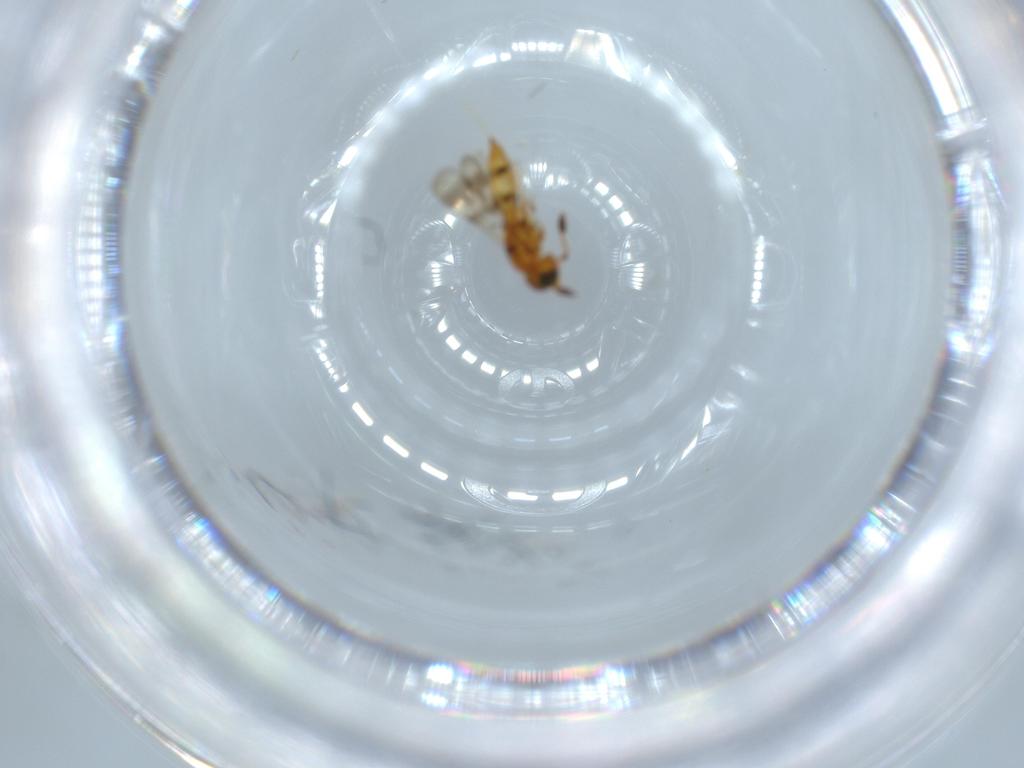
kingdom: Animalia
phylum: Arthropoda
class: Insecta
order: Hymenoptera
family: Scelionidae
